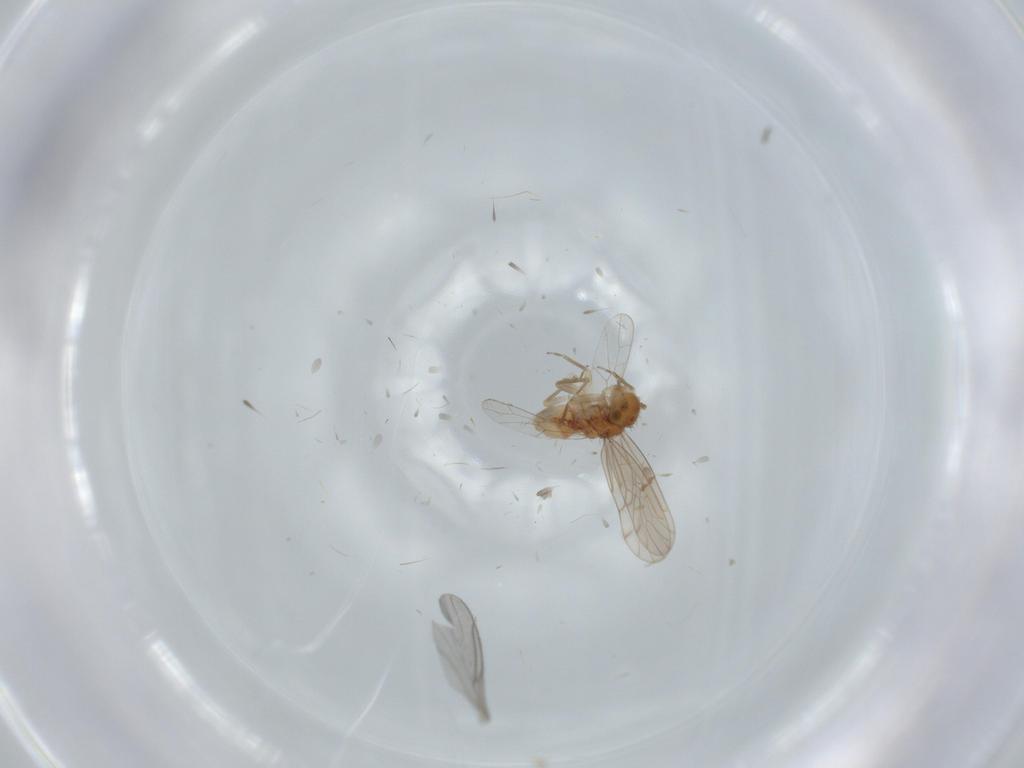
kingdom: Animalia
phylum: Arthropoda
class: Insecta
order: Psocodea
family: Ectopsocidae
